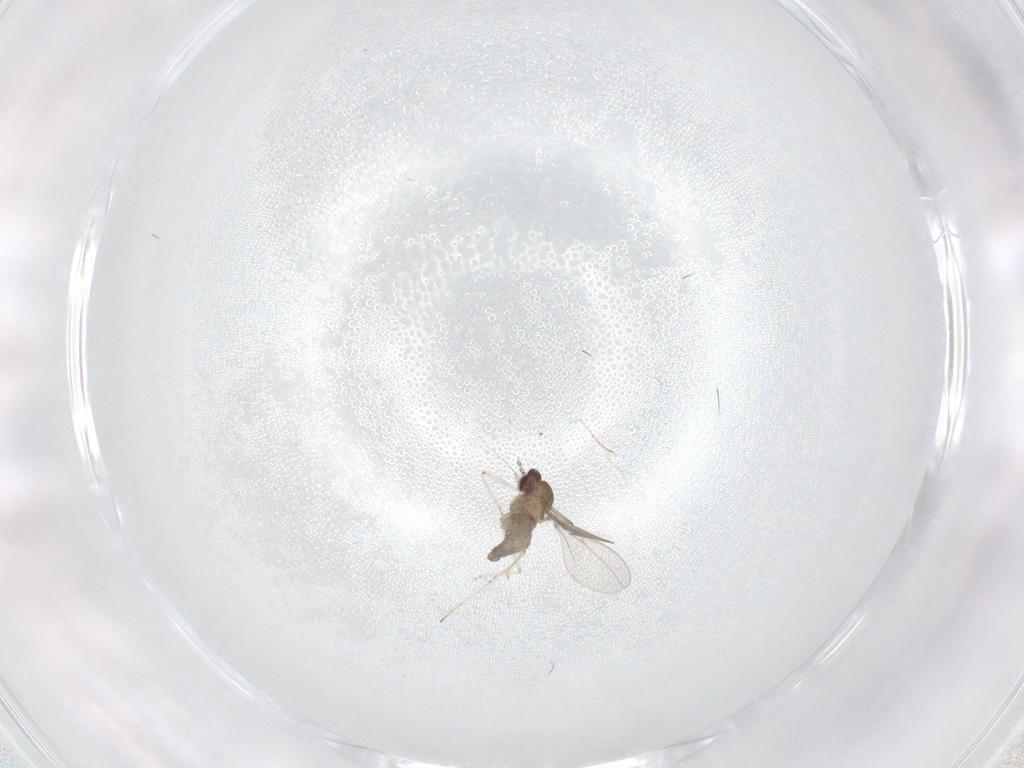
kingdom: Animalia
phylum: Arthropoda
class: Insecta
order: Diptera
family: Cecidomyiidae
